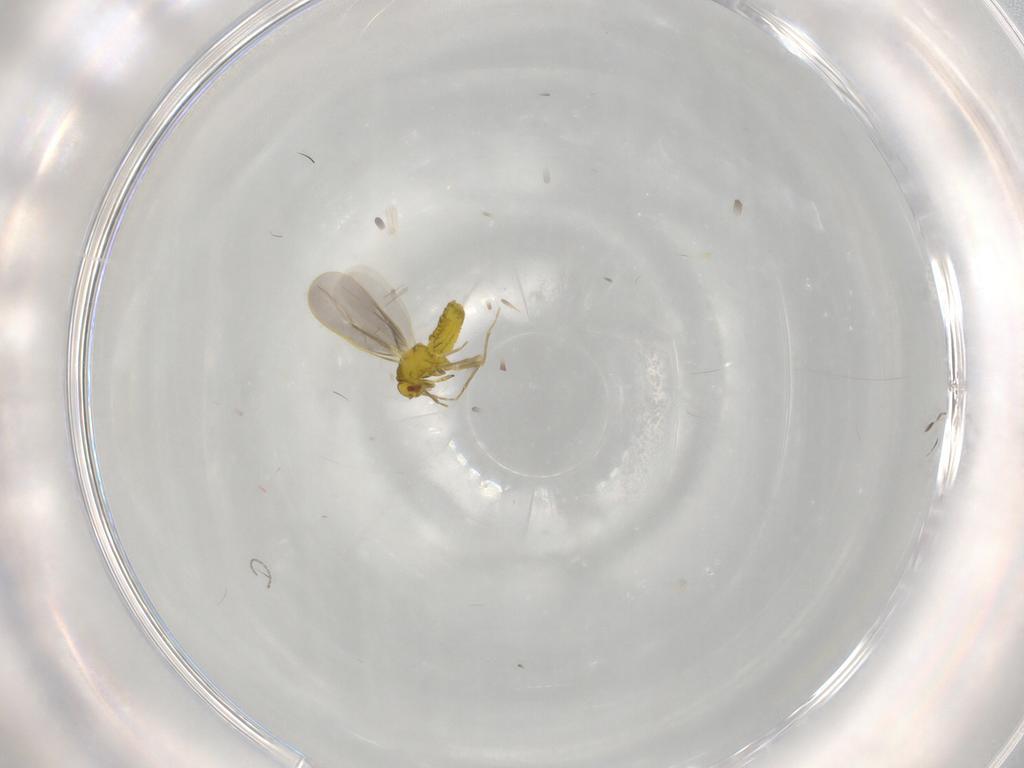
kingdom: Animalia
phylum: Arthropoda
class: Insecta
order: Hemiptera
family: Aleyrodidae
